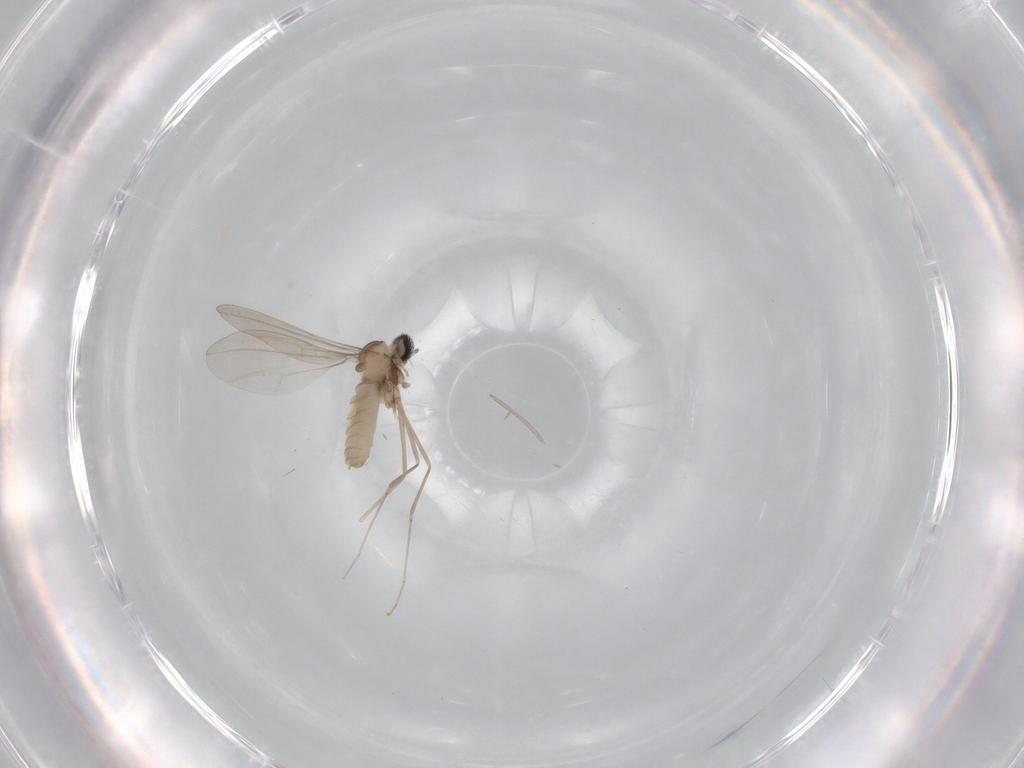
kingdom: Animalia
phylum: Arthropoda
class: Insecta
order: Diptera
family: Cecidomyiidae
